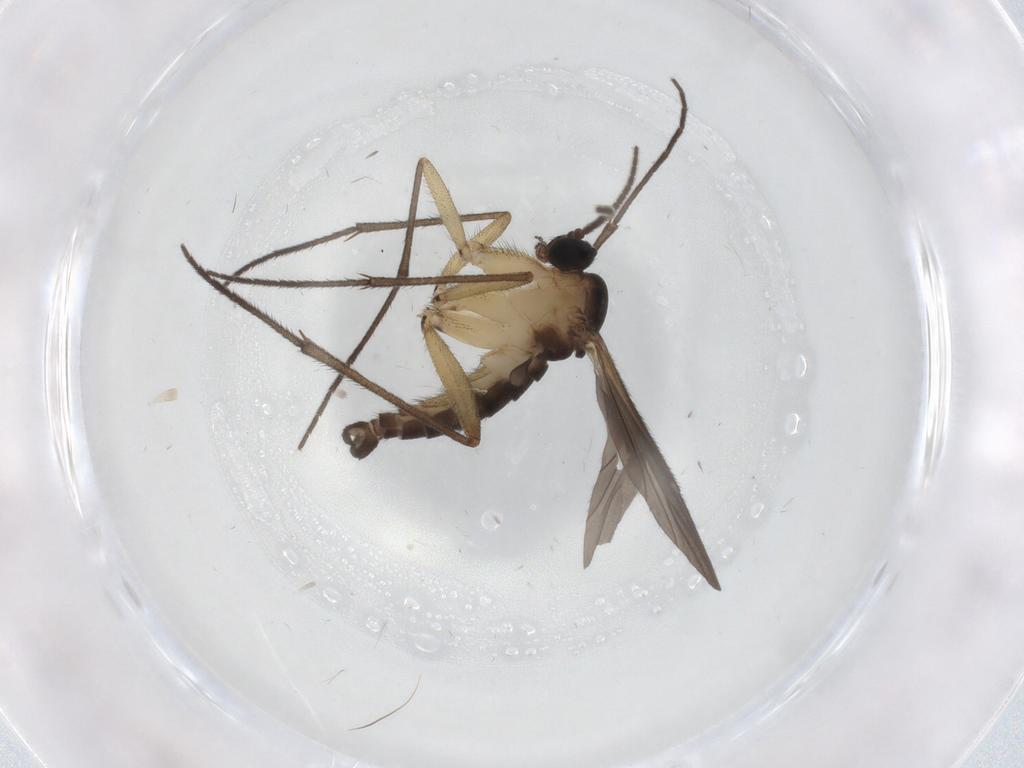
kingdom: Animalia
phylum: Arthropoda
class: Insecta
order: Diptera
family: Sciaridae
